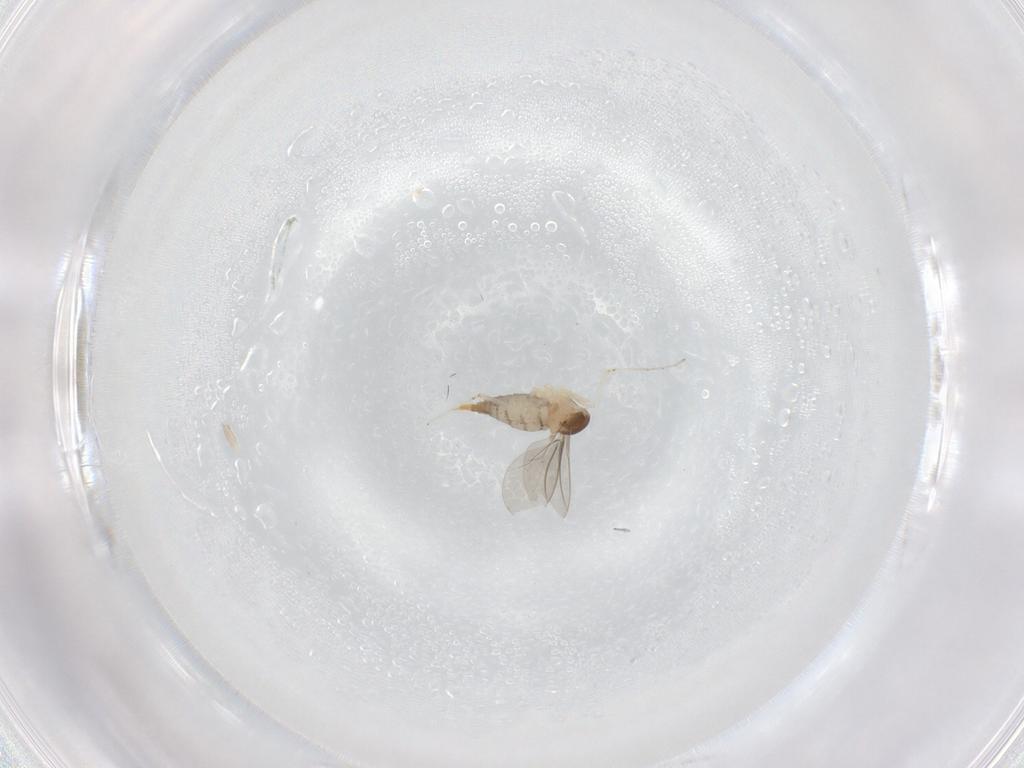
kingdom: Animalia
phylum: Arthropoda
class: Insecta
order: Diptera
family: Cecidomyiidae
